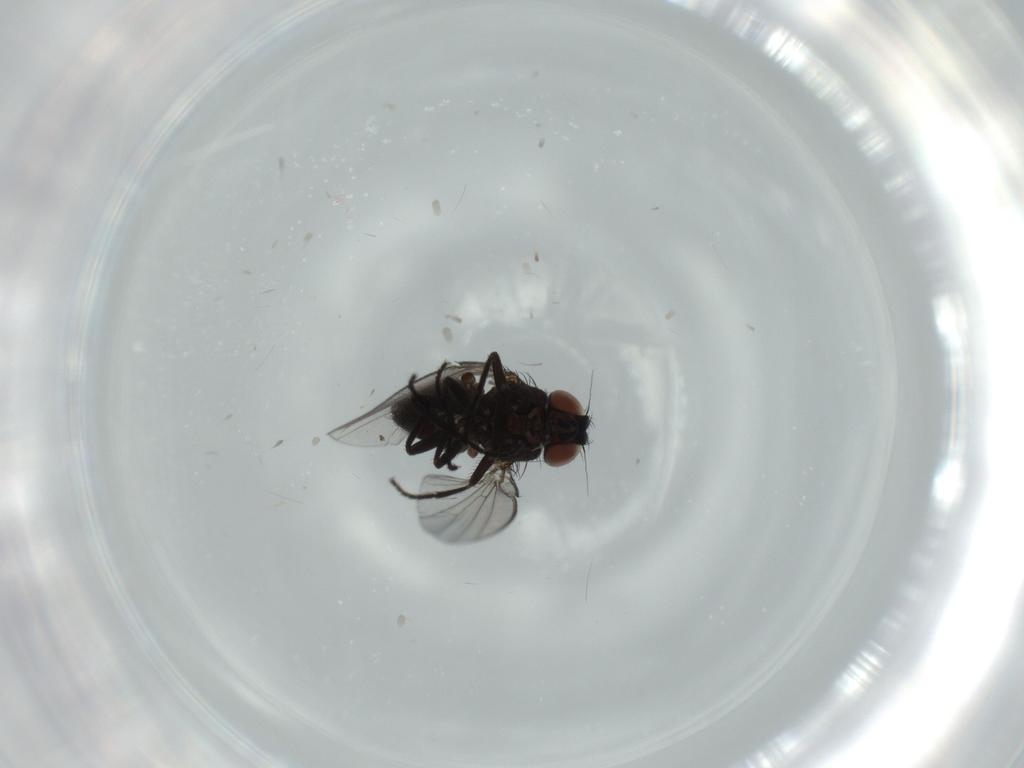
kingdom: Animalia
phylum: Arthropoda
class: Insecta
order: Diptera
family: Milichiidae
